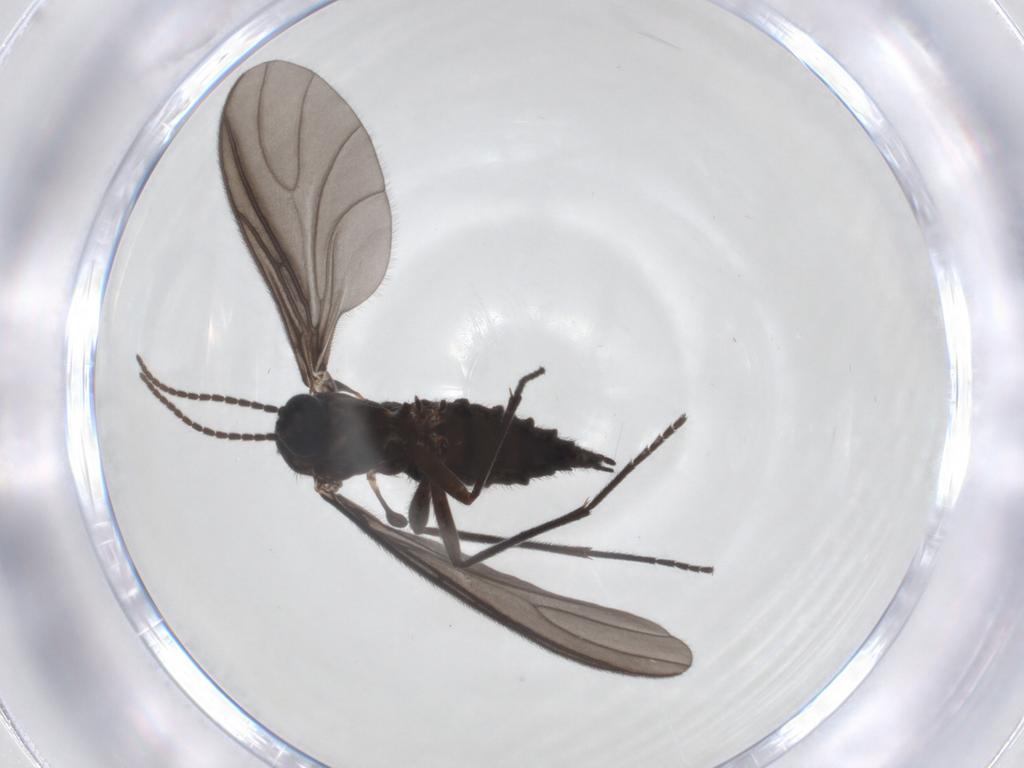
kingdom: Animalia
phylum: Arthropoda
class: Insecta
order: Diptera
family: Sciaridae
